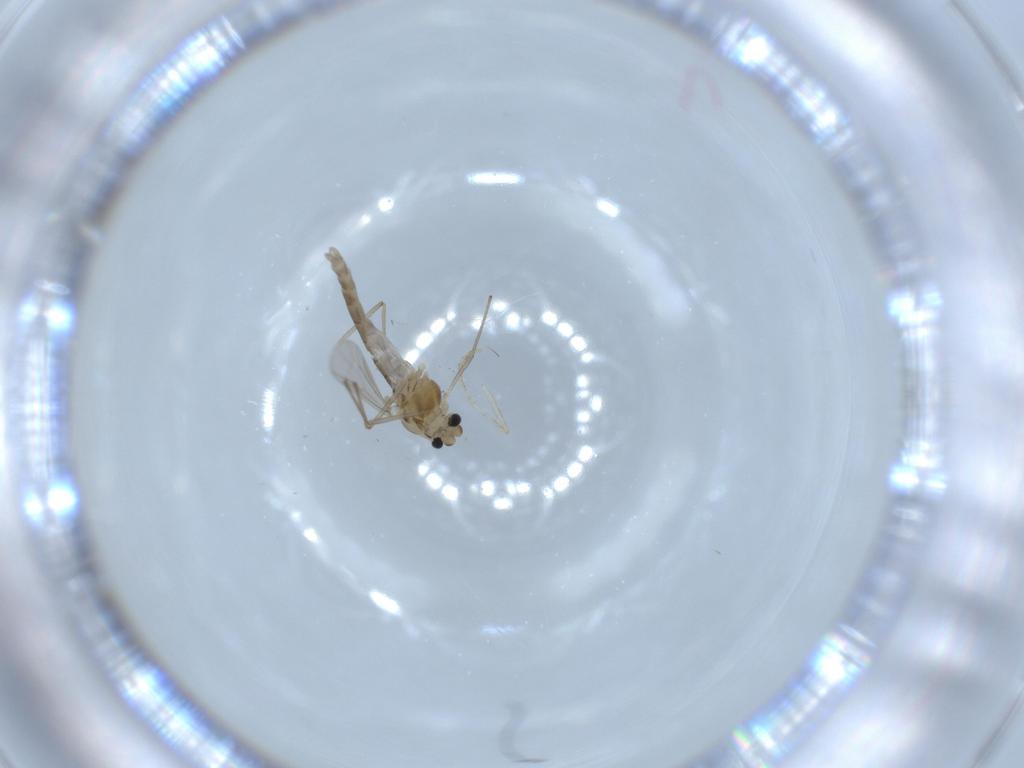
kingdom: Animalia
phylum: Arthropoda
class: Insecta
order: Diptera
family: Chironomidae
